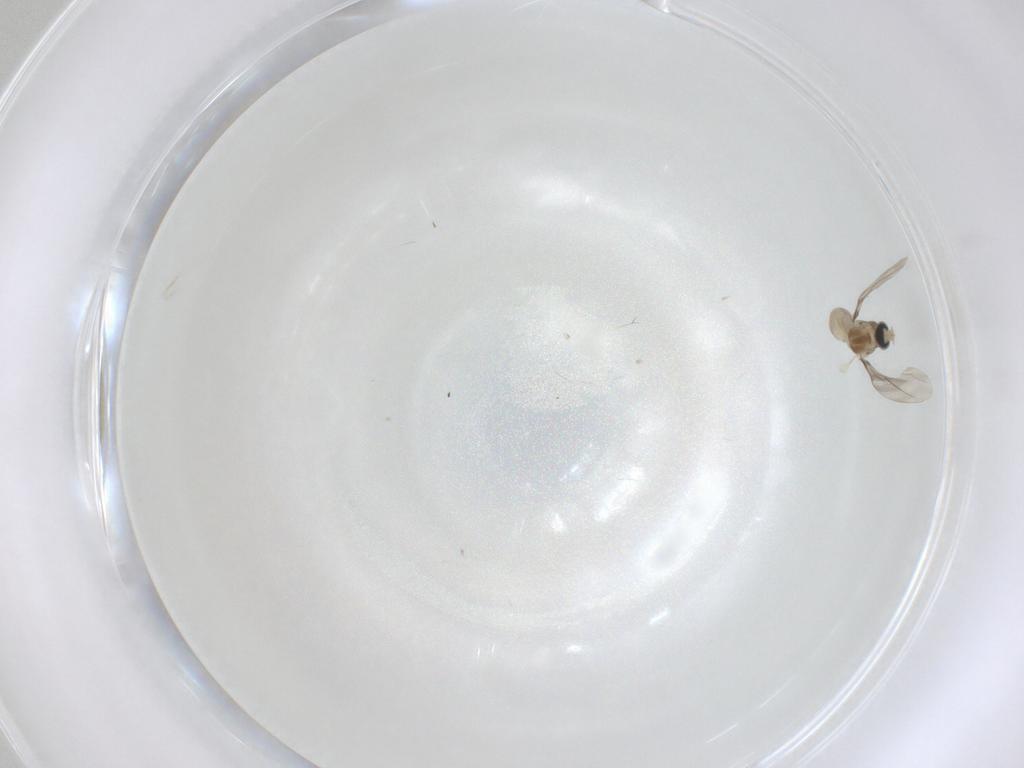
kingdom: Animalia
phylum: Arthropoda
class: Insecta
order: Diptera
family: Cecidomyiidae
